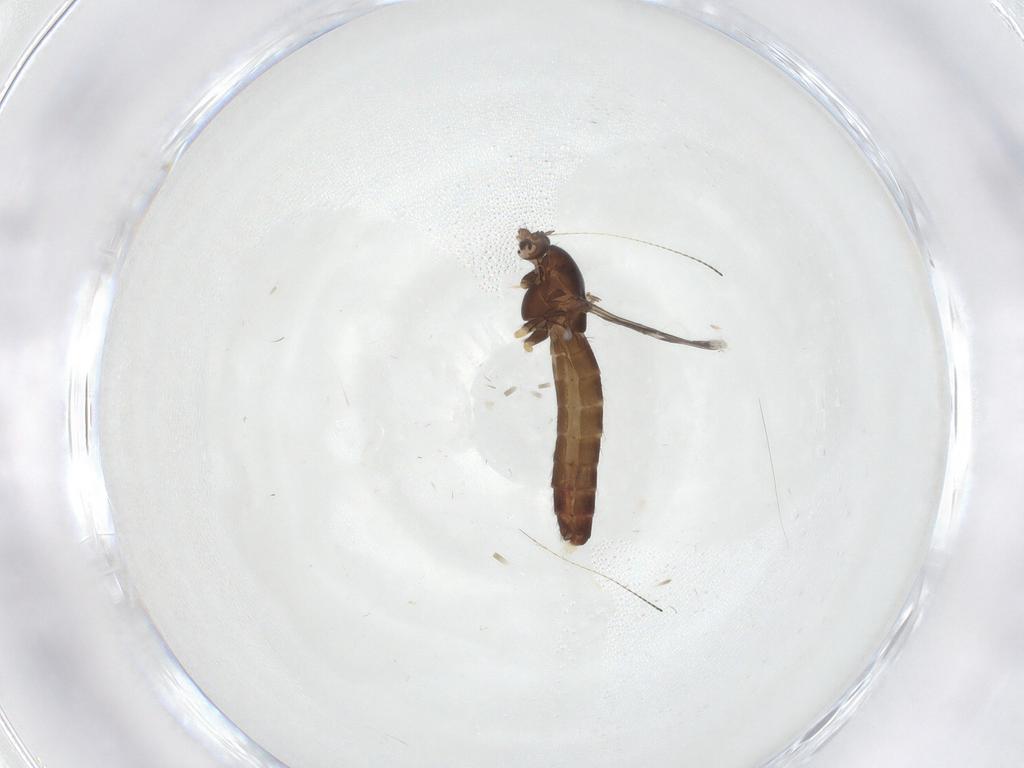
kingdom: Animalia
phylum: Arthropoda
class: Insecta
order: Diptera
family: Chironomidae
